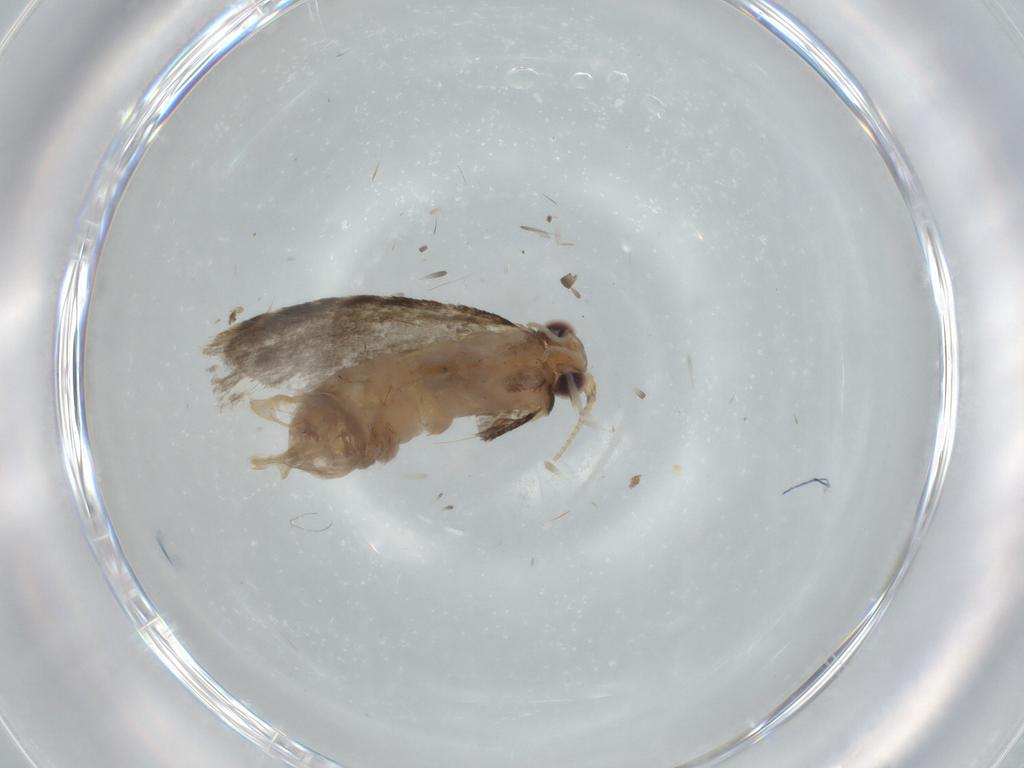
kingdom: Animalia
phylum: Arthropoda
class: Insecta
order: Lepidoptera
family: Tineidae
